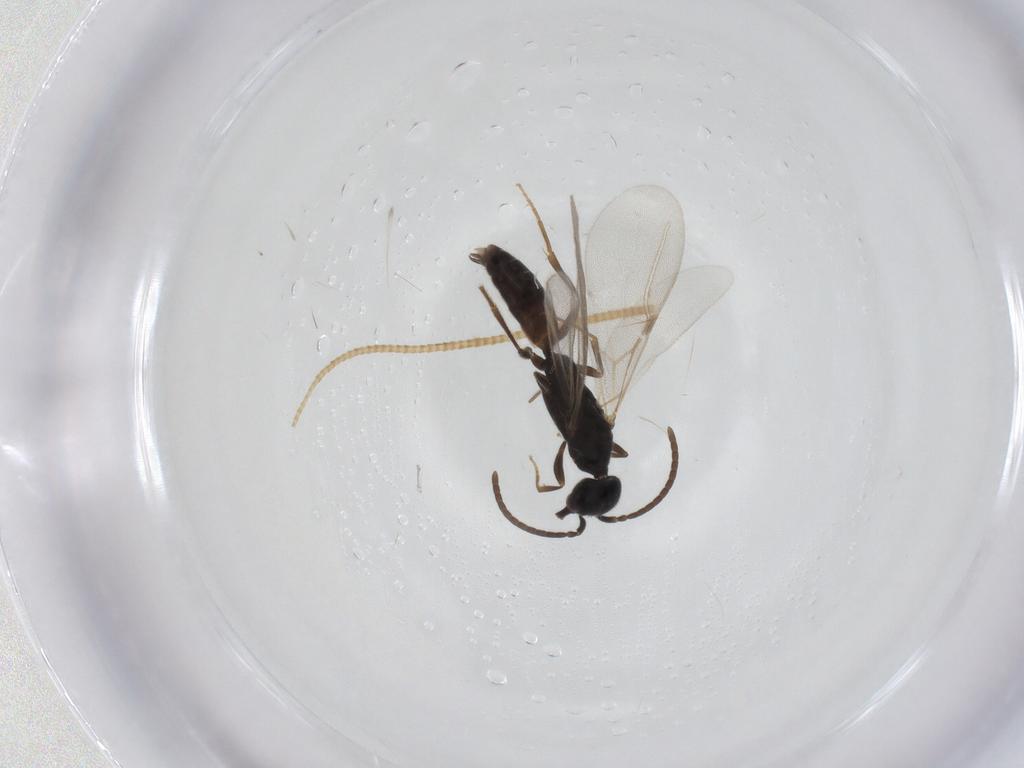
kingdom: Animalia
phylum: Arthropoda
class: Insecta
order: Hymenoptera
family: Bethylidae
